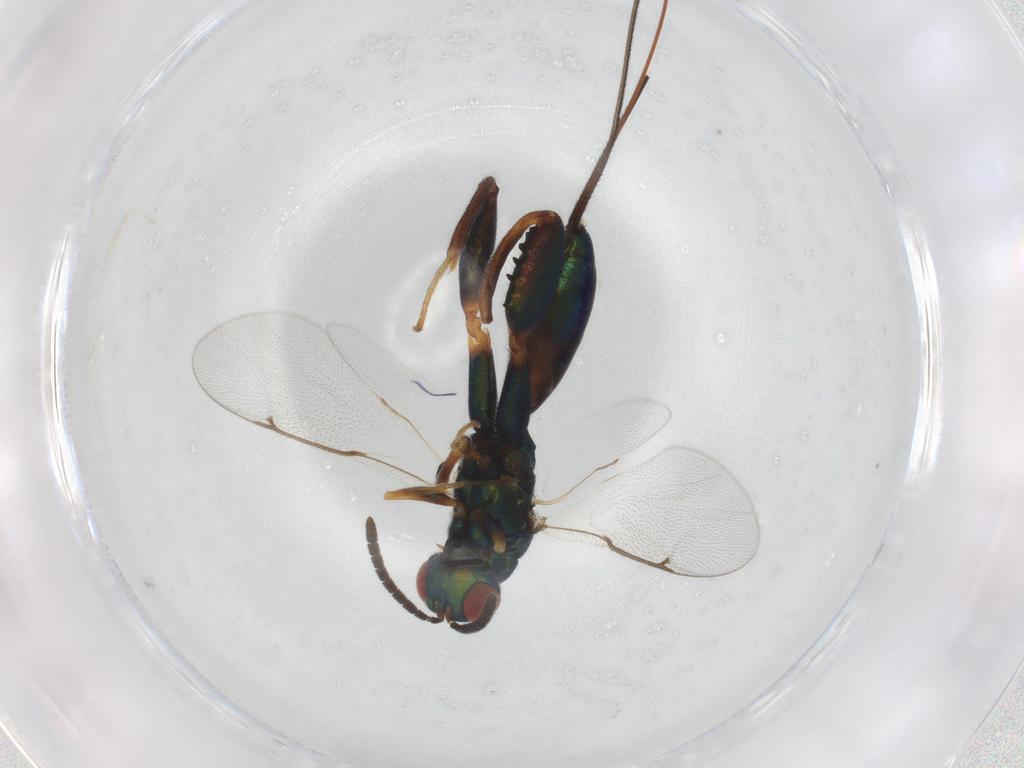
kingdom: Animalia
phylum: Arthropoda
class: Insecta
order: Hymenoptera
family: Torymidae
